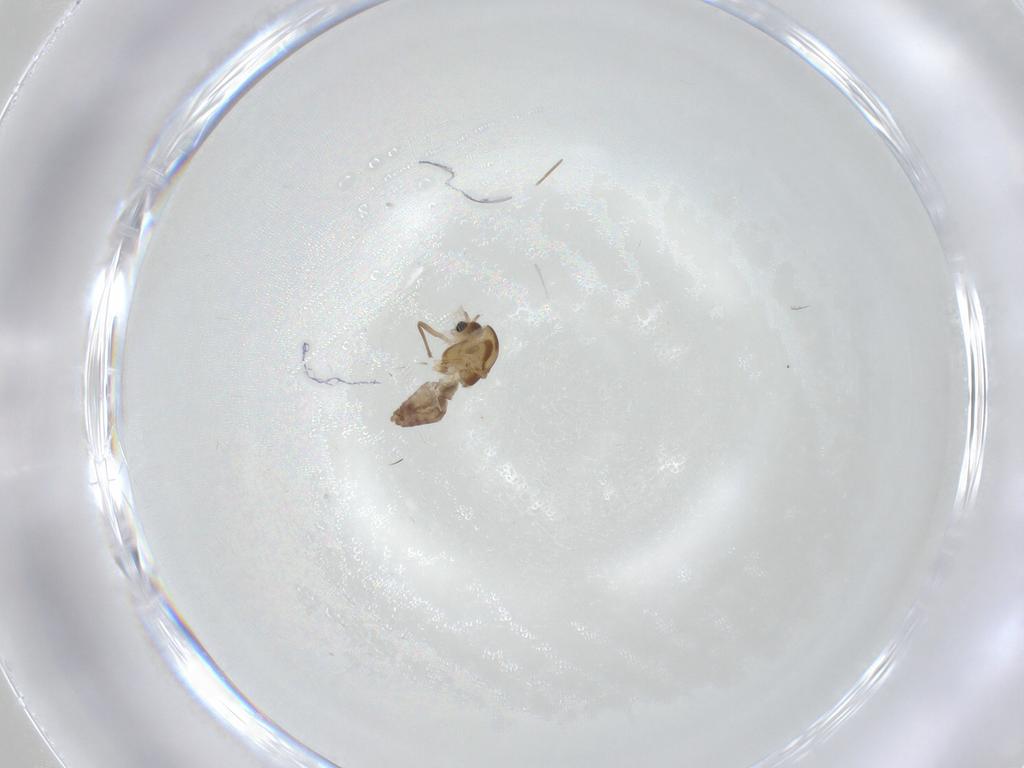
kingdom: Animalia
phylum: Arthropoda
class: Insecta
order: Diptera
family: Chironomidae
